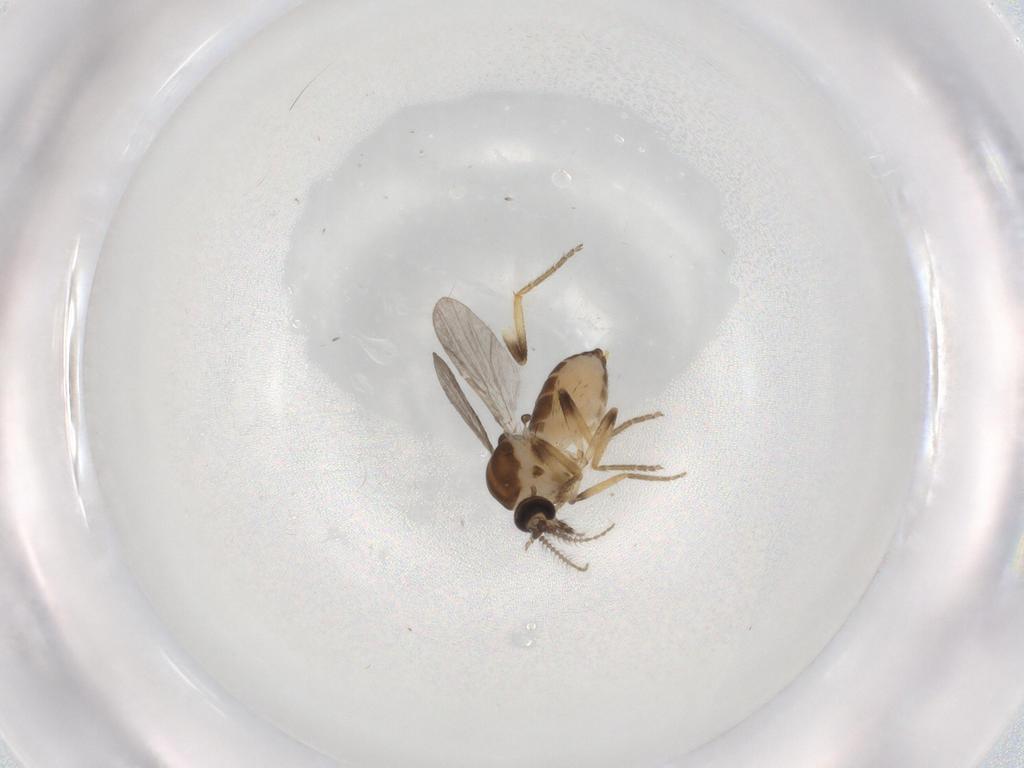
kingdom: Animalia
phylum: Arthropoda
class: Insecta
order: Diptera
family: Ceratopogonidae
